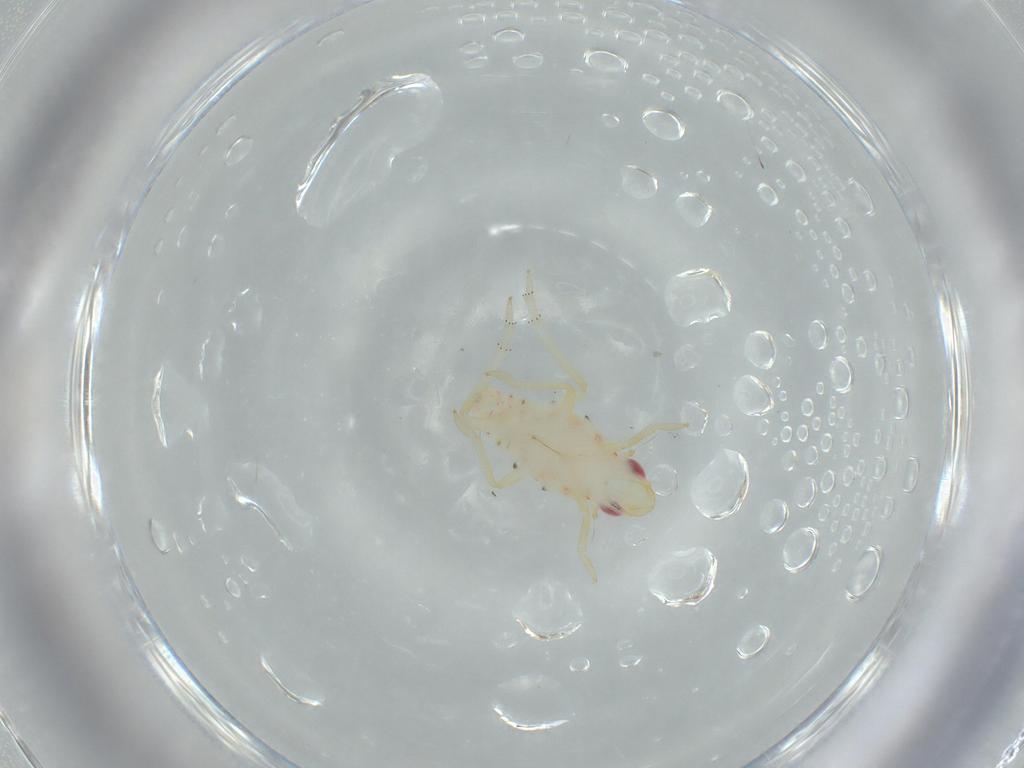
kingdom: Animalia
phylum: Arthropoda
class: Insecta
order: Hemiptera
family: Tropiduchidae
